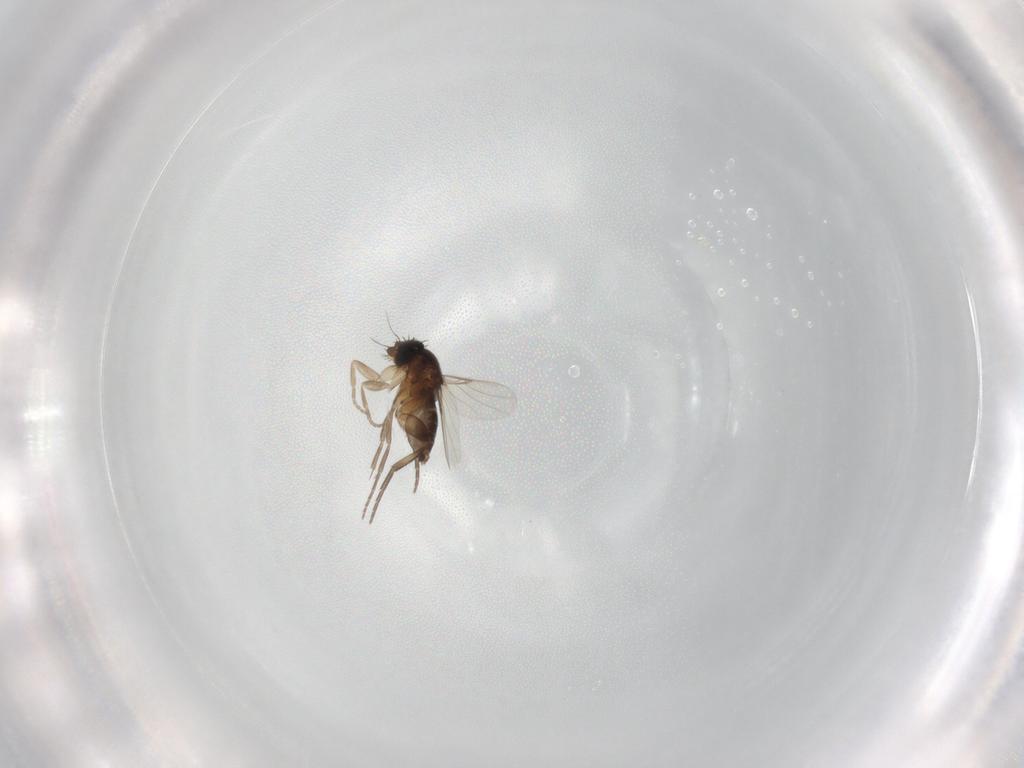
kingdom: Animalia
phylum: Arthropoda
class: Insecta
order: Diptera
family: Phoridae
